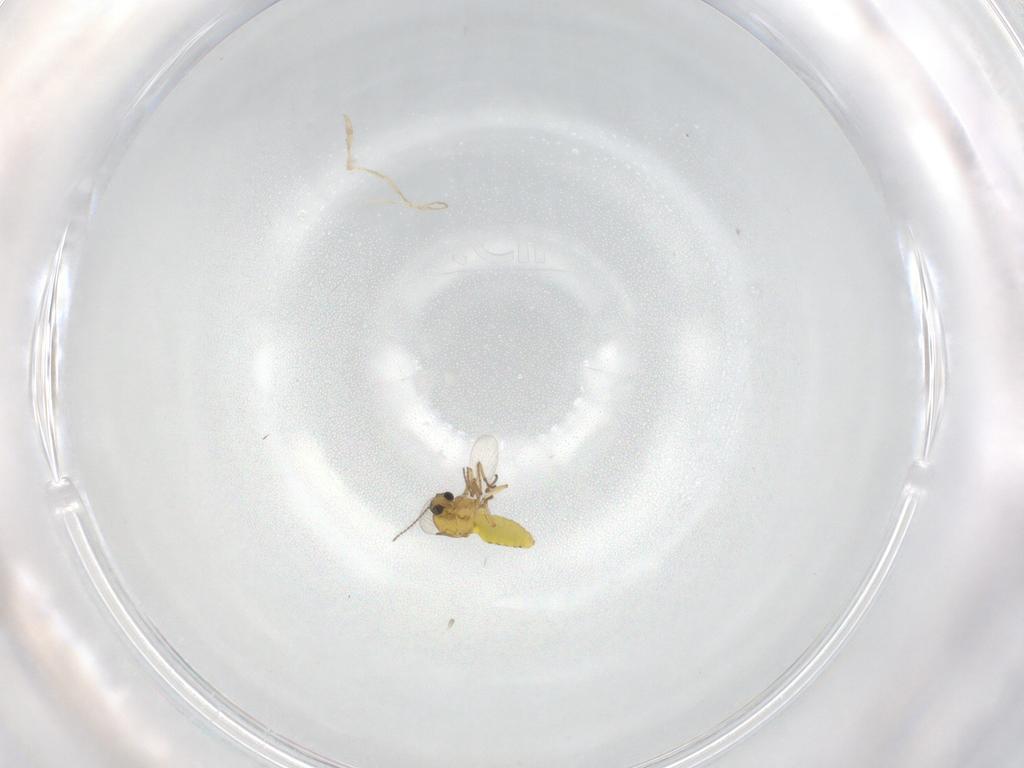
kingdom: Animalia
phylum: Arthropoda
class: Insecta
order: Diptera
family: Ceratopogonidae
